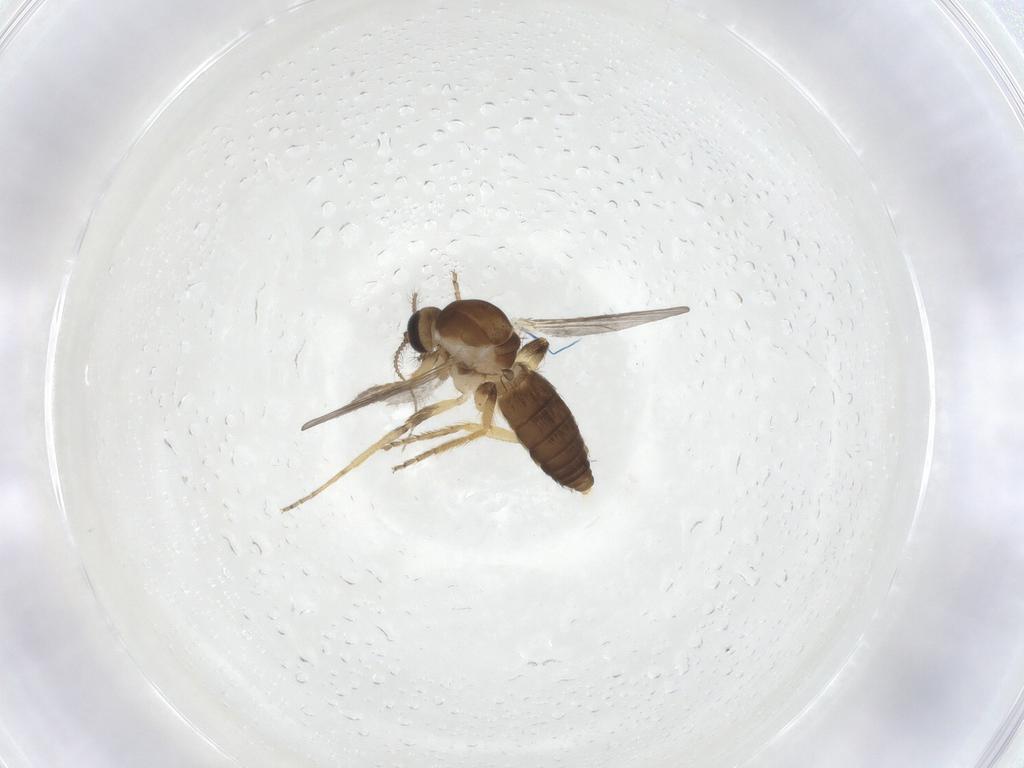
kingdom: Animalia
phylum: Arthropoda
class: Insecta
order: Diptera
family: Ceratopogonidae
